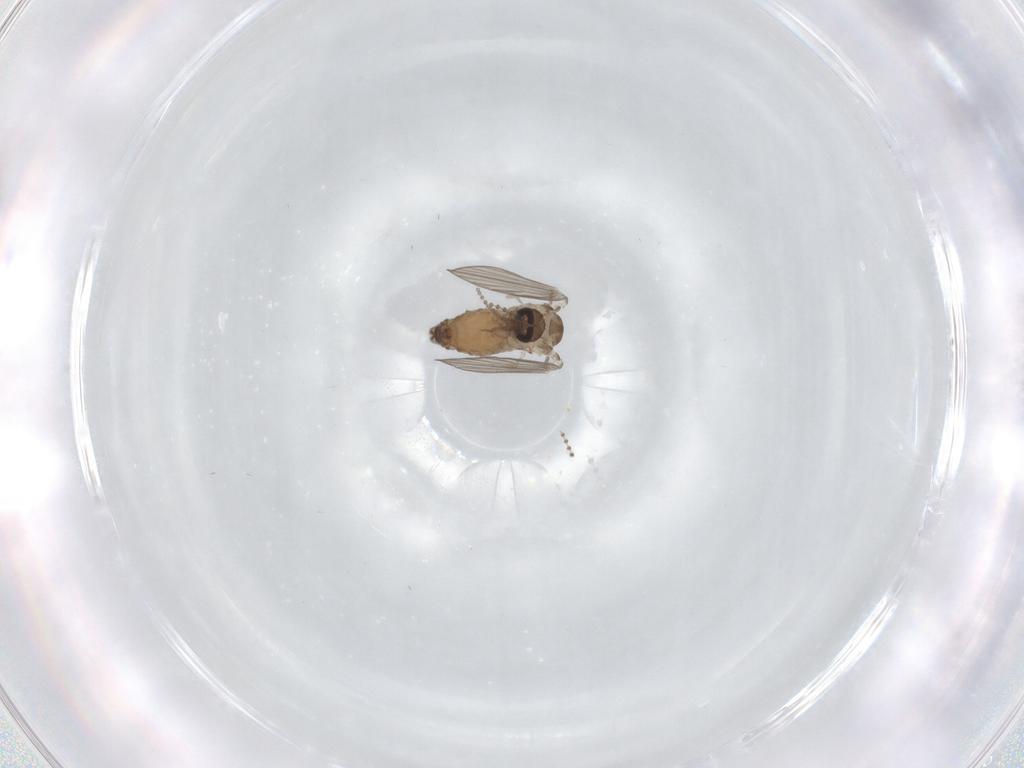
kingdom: Animalia
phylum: Arthropoda
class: Insecta
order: Diptera
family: Psychodidae
